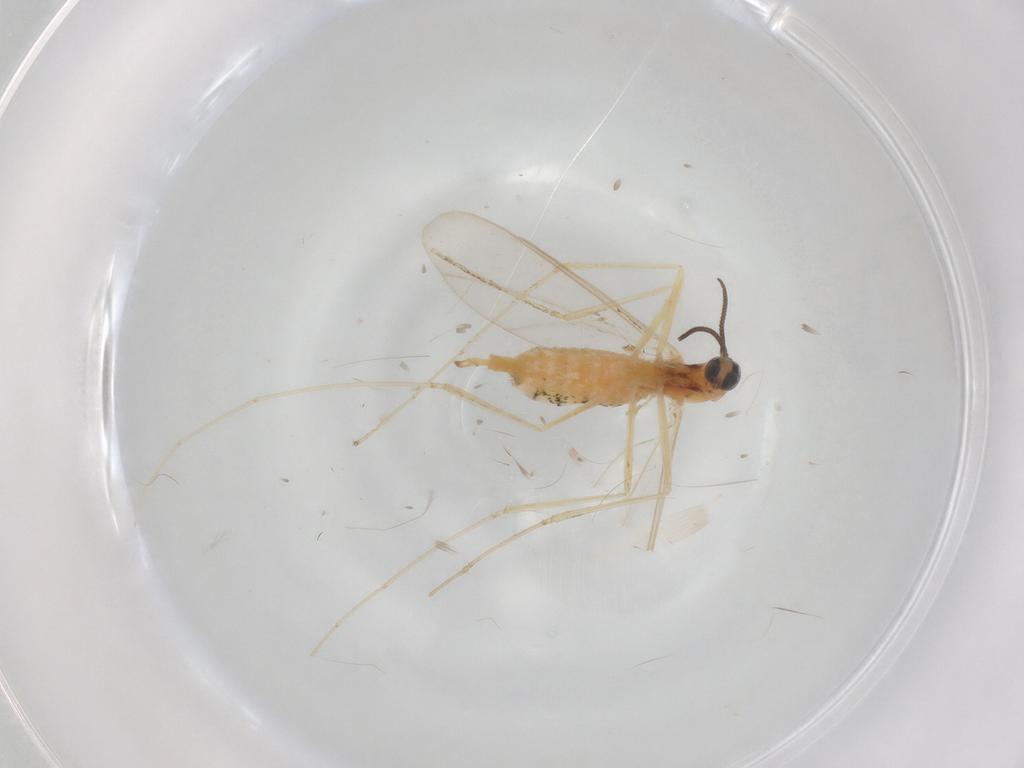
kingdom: Animalia
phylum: Arthropoda
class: Insecta
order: Diptera
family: Cecidomyiidae
